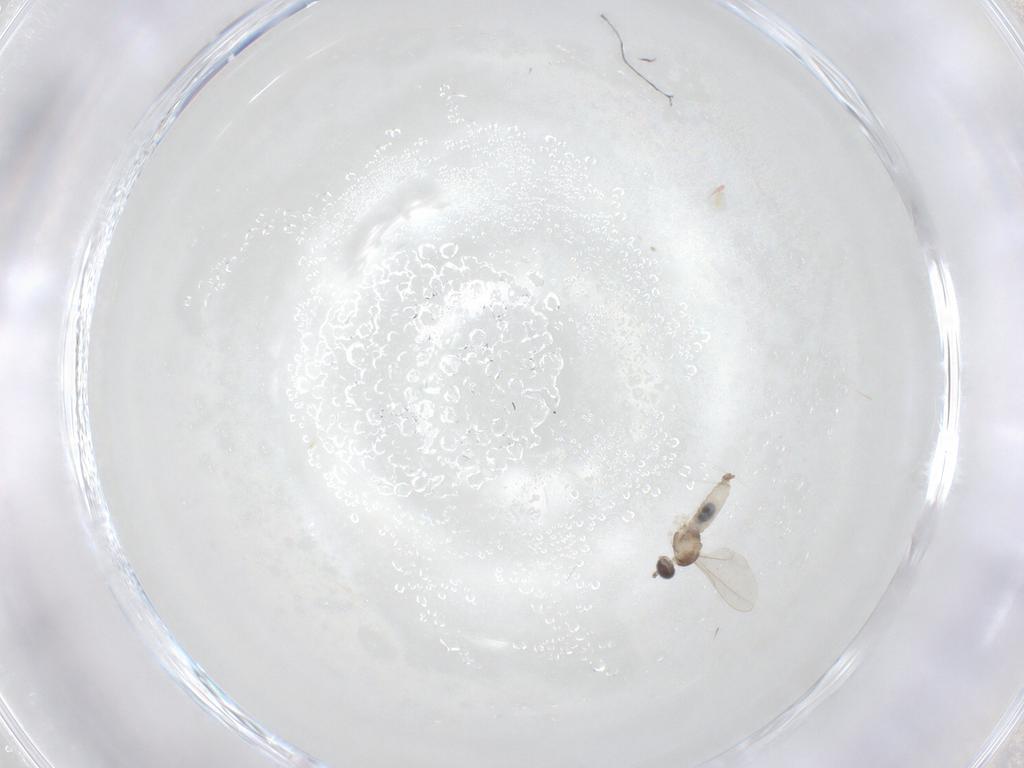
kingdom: Animalia
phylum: Arthropoda
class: Insecta
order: Diptera
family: Cecidomyiidae
